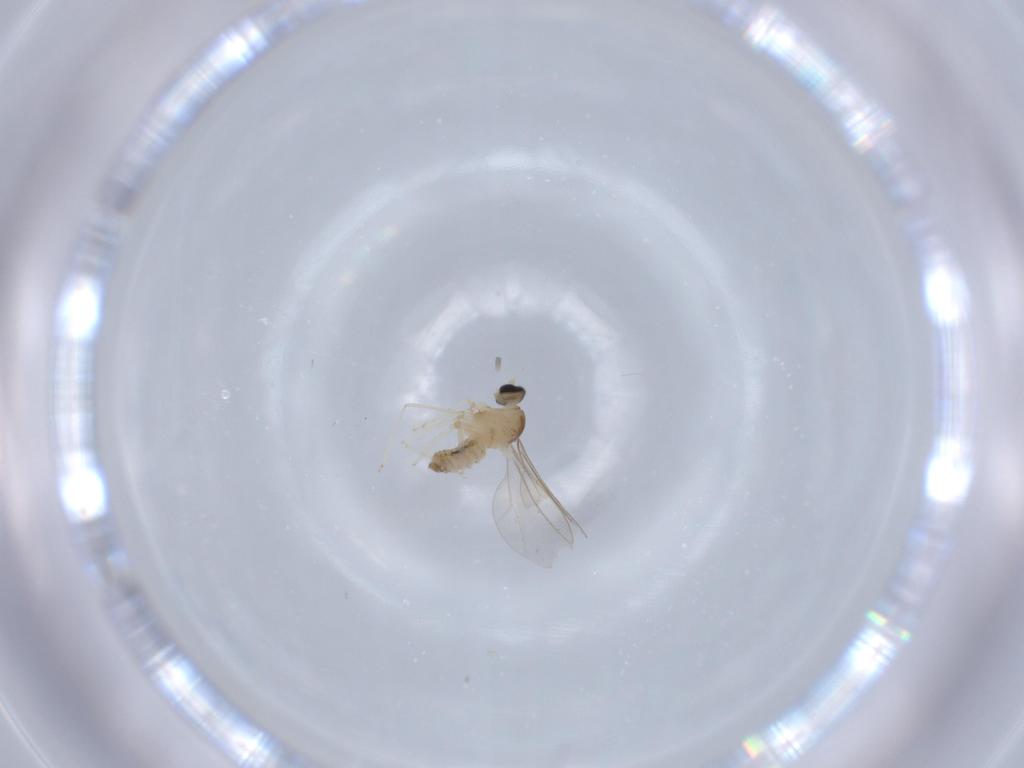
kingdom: Animalia
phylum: Arthropoda
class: Insecta
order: Diptera
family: Cecidomyiidae
